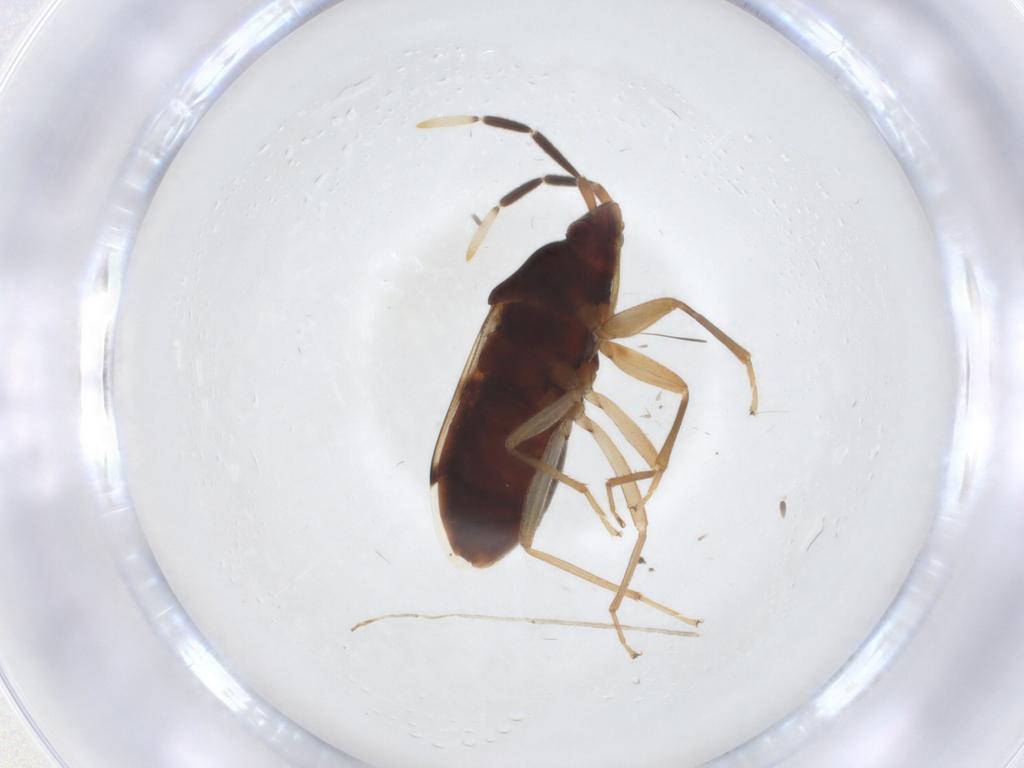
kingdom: Animalia
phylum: Arthropoda
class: Insecta
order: Hemiptera
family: Rhyparochromidae
